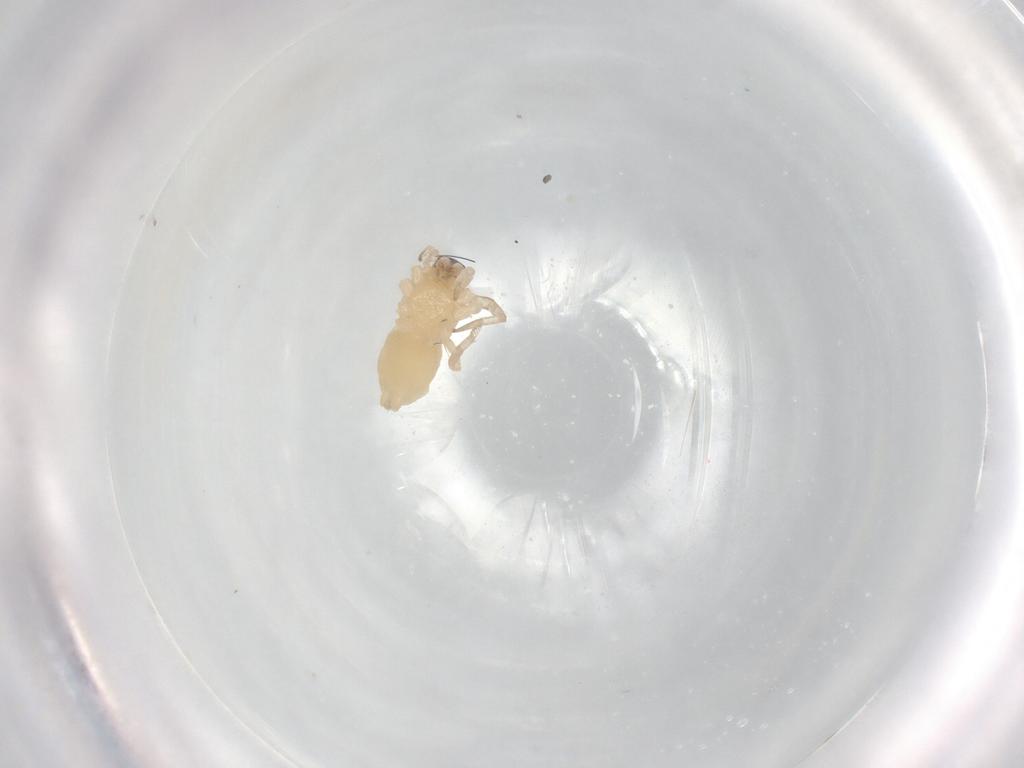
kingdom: Animalia
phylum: Arthropoda
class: Arachnida
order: Araneae
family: Gnaphosidae
